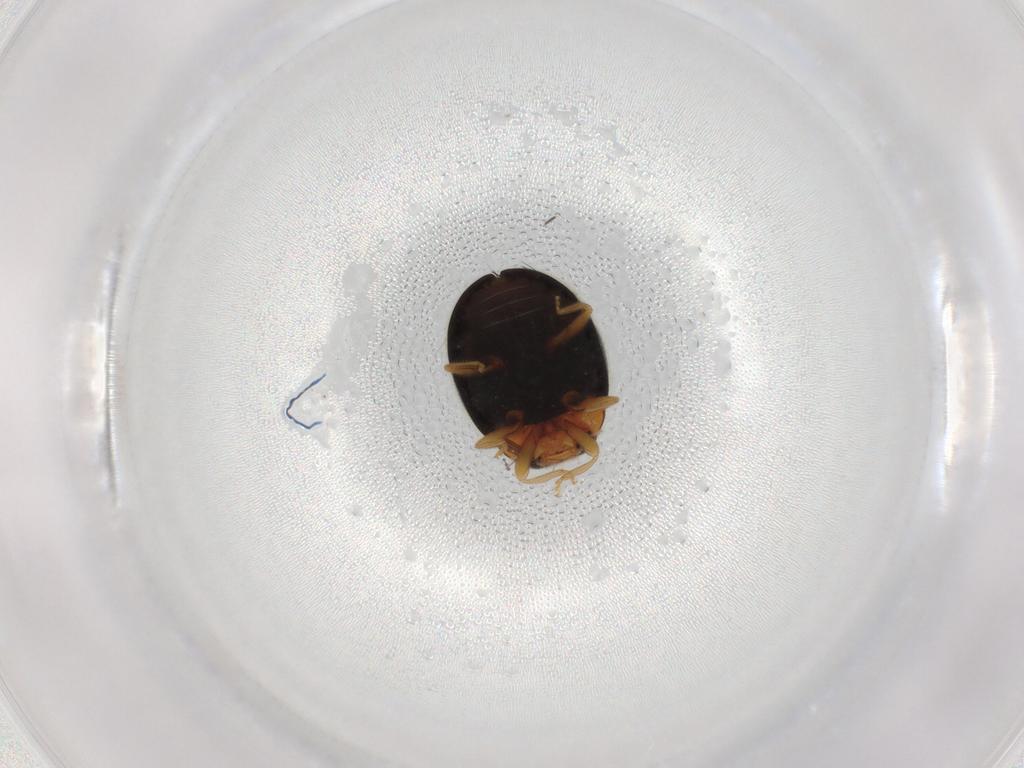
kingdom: Animalia
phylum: Arthropoda
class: Insecta
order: Coleoptera
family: Coccinellidae
